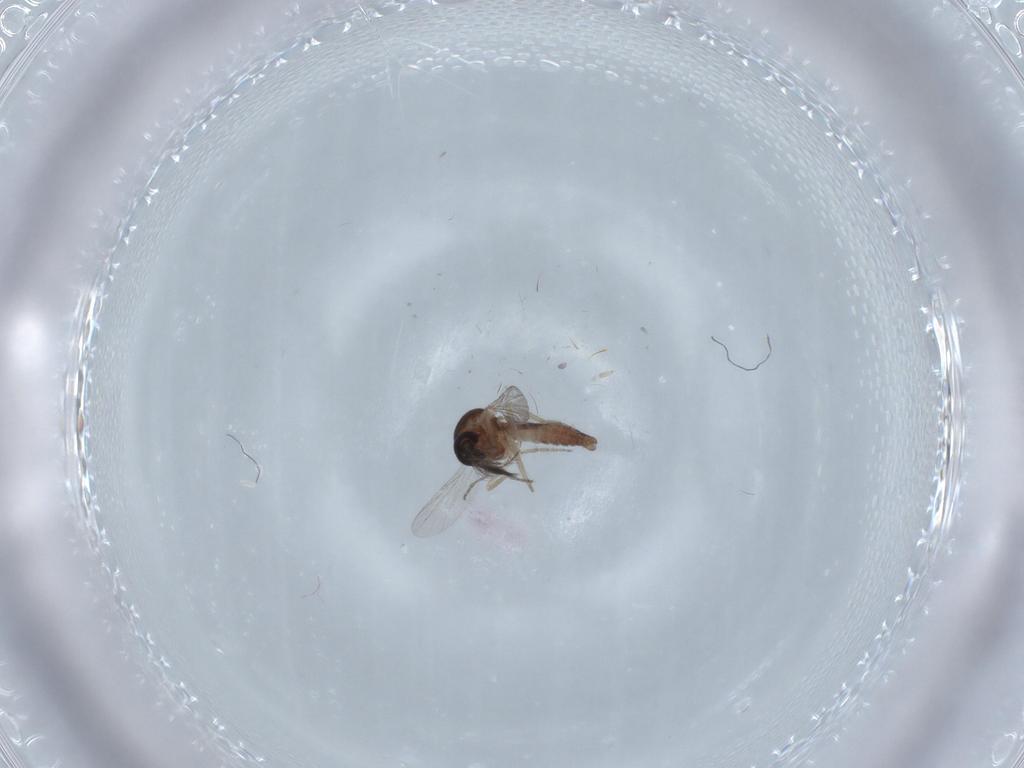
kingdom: Animalia
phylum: Arthropoda
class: Insecta
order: Diptera
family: Ceratopogonidae
